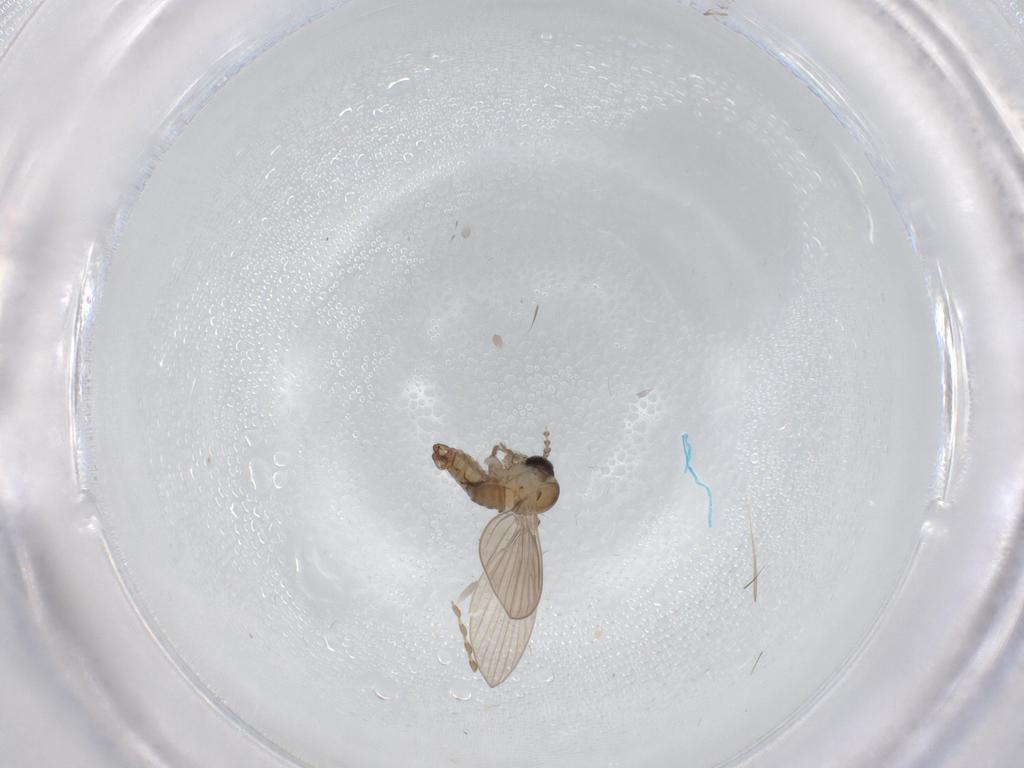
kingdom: Animalia
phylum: Arthropoda
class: Insecta
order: Diptera
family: Psychodidae
